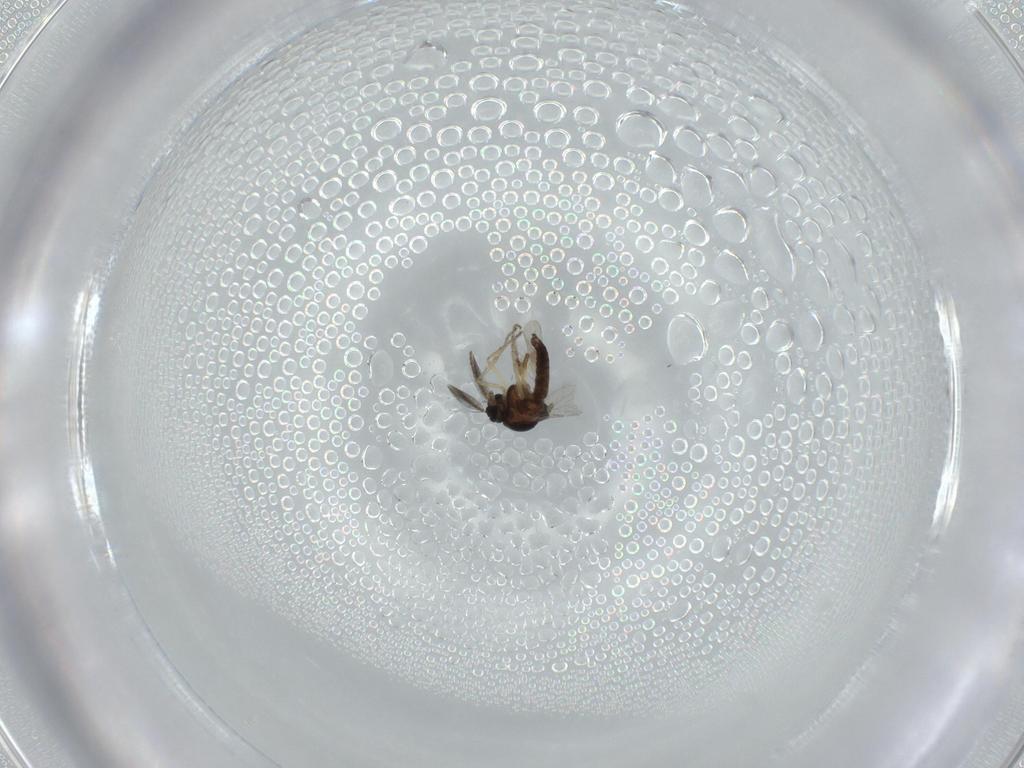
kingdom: Animalia
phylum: Arthropoda
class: Insecta
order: Diptera
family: Ceratopogonidae
